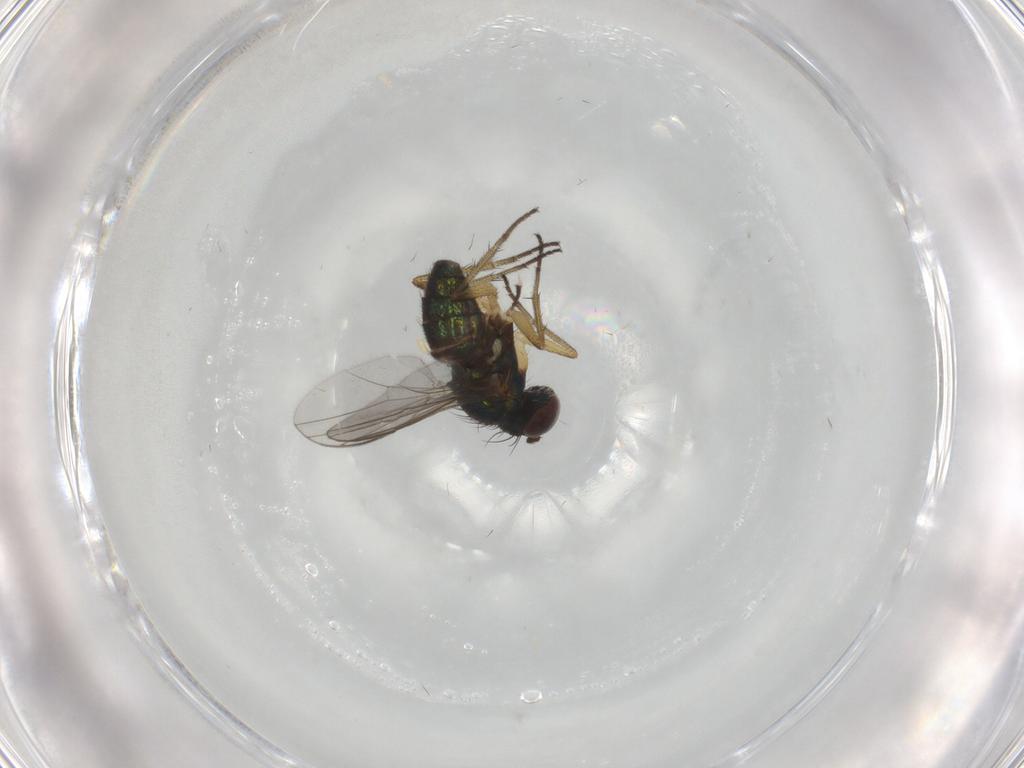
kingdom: Animalia
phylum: Arthropoda
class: Insecta
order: Diptera
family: Dolichopodidae
